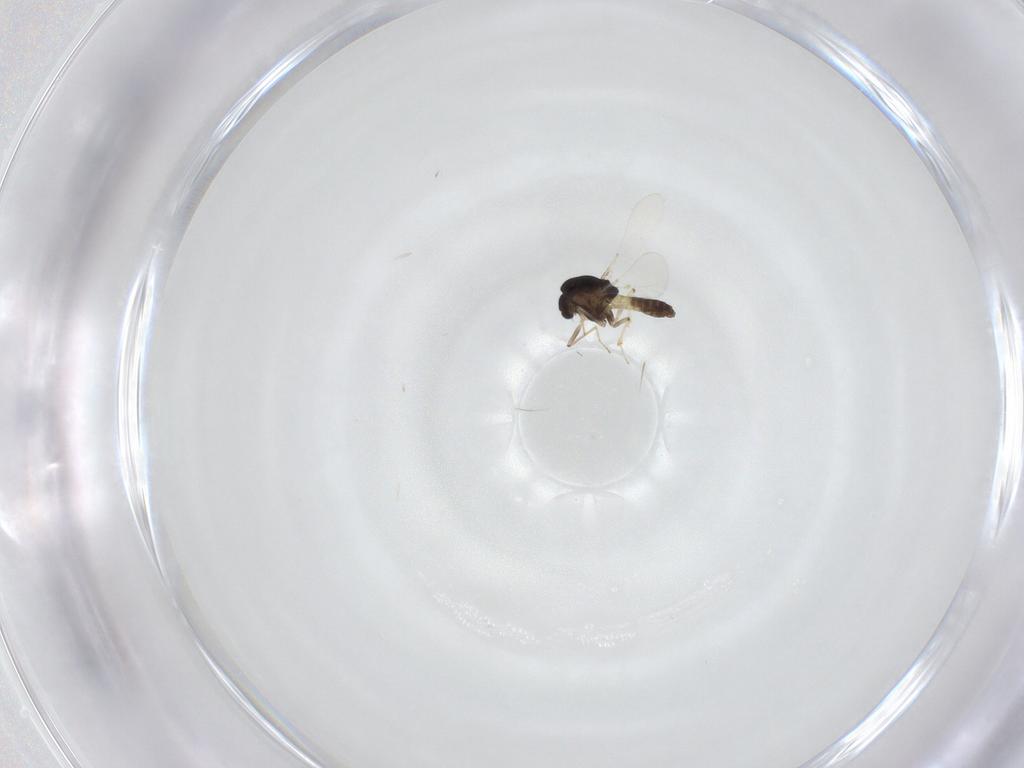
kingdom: Animalia
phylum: Arthropoda
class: Insecta
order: Diptera
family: Chironomidae
